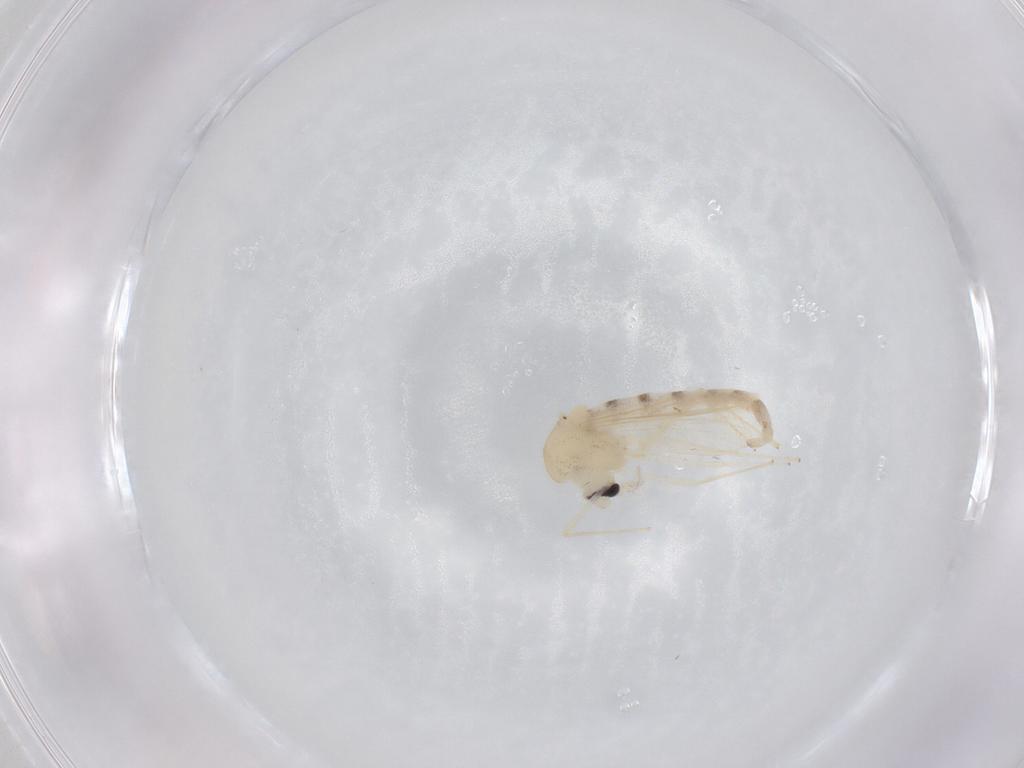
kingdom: Animalia
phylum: Arthropoda
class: Insecta
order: Diptera
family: Chironomidae
